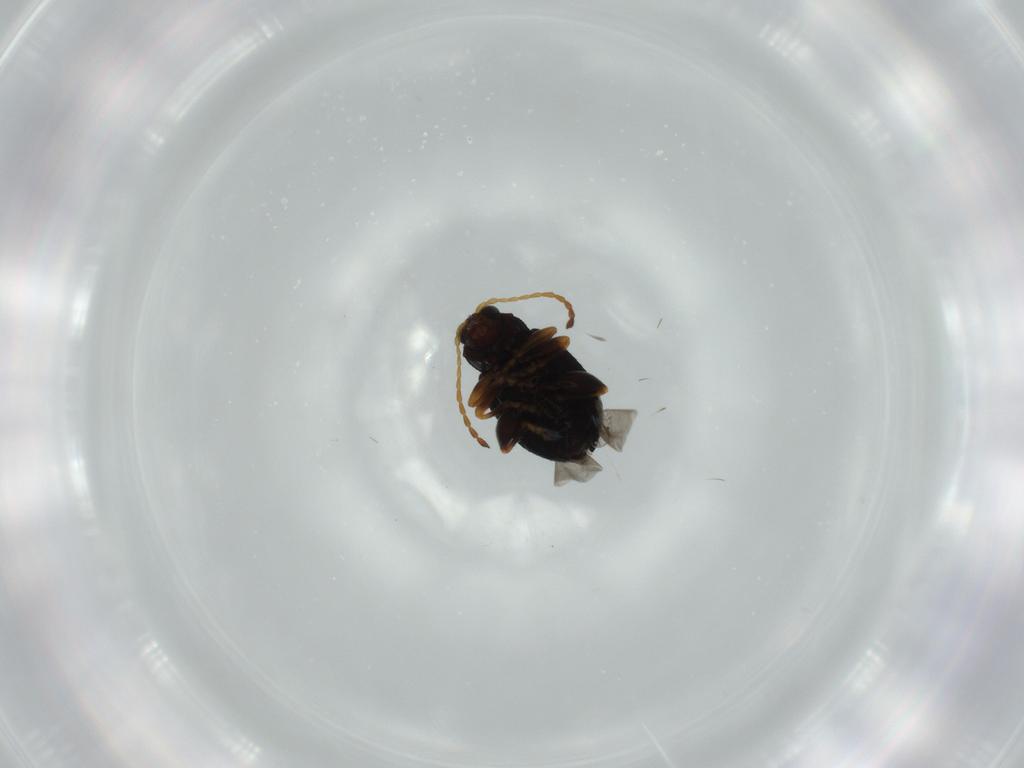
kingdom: Animalia
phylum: Arthropoda
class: Insecta
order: Coleoptera
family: Chrysomelidae
